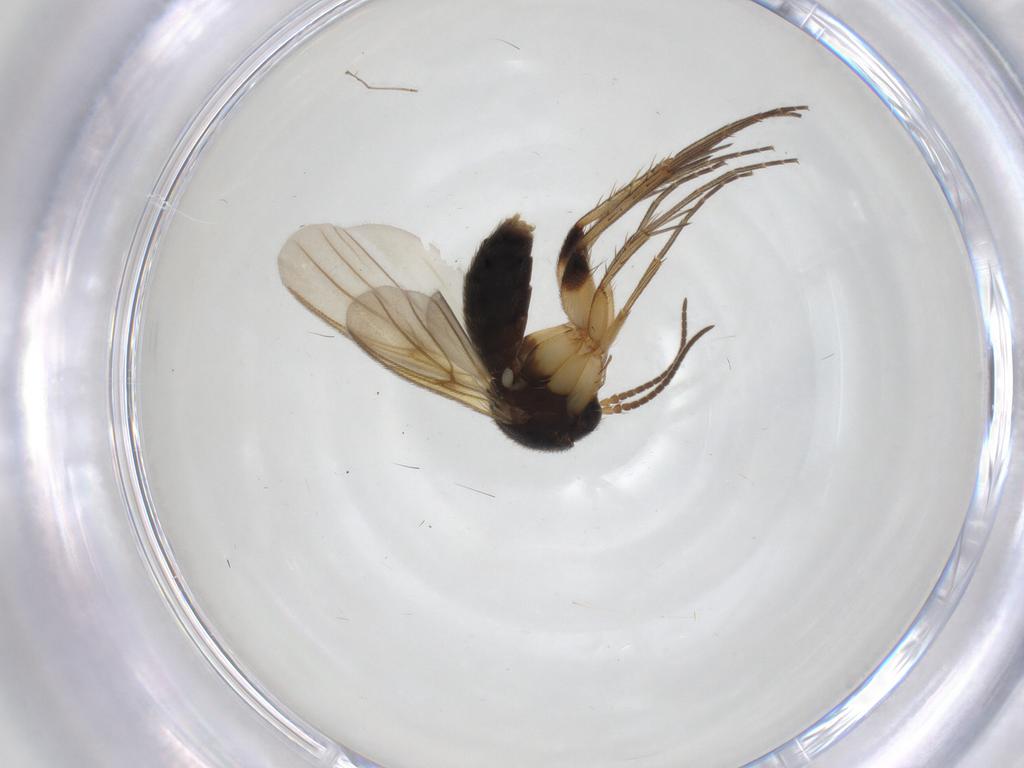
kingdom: Animalia
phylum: Arthropoda
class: Insecta
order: Diptera
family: Cecidomyiidae
